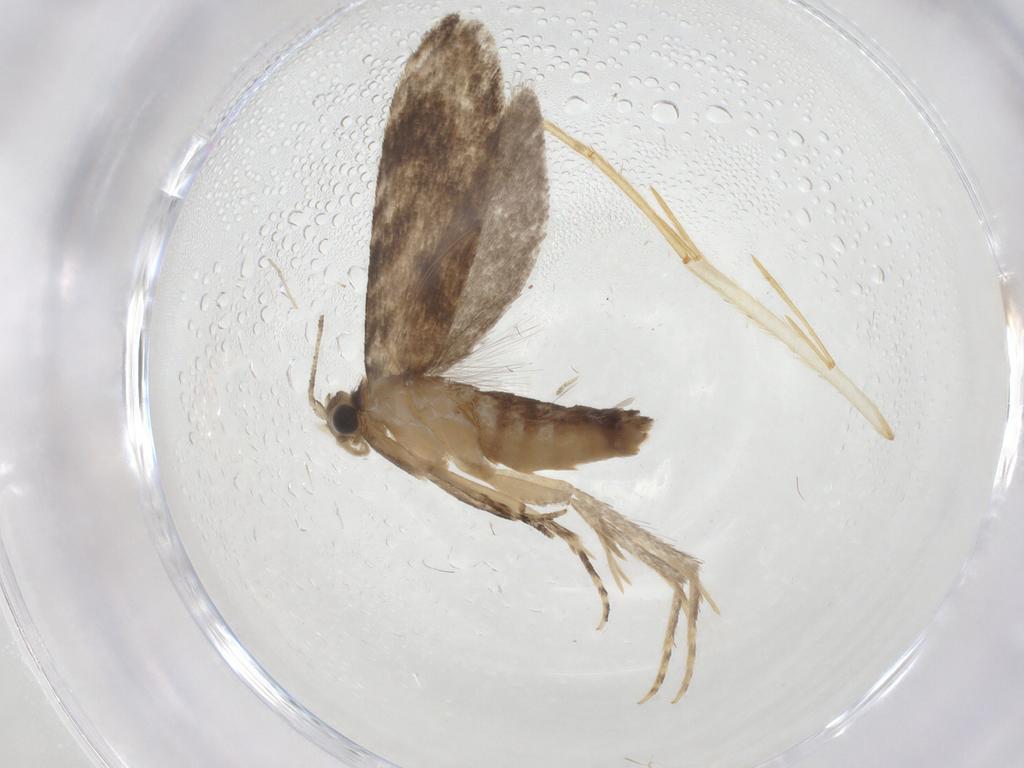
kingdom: Animalia
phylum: Arthropoda
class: Insecta
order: Lepidoptera
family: Tineidae
